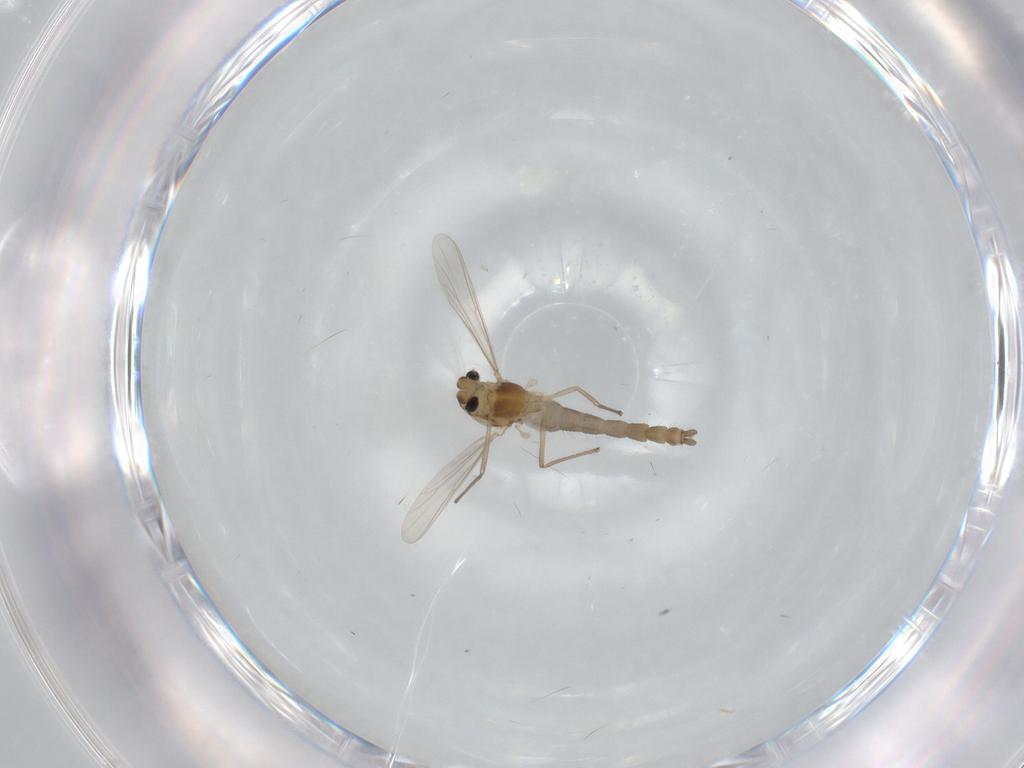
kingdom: Animalia
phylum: Arthropoda
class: Insecta
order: Diptera
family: Chironomidae
